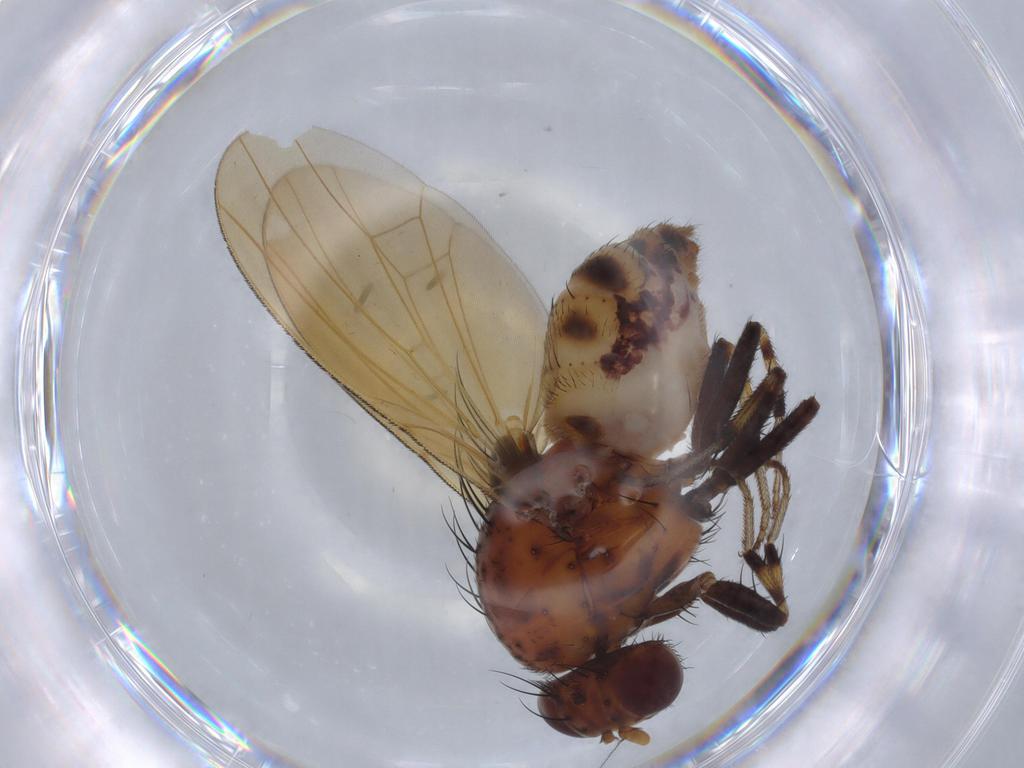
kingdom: Animalia
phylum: Arthropoda
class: Insecta
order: Diptera
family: Lauxaniidae
